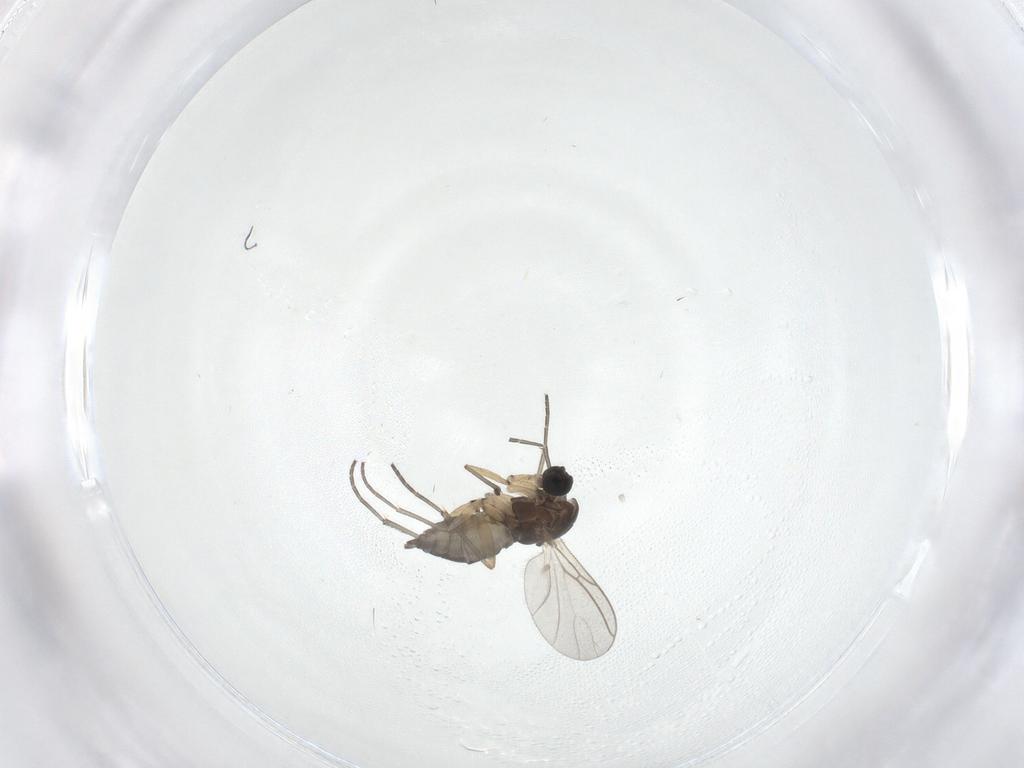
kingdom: Animalia
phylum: Arthropoda
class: Insecta
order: Diptera
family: Sciaridae
